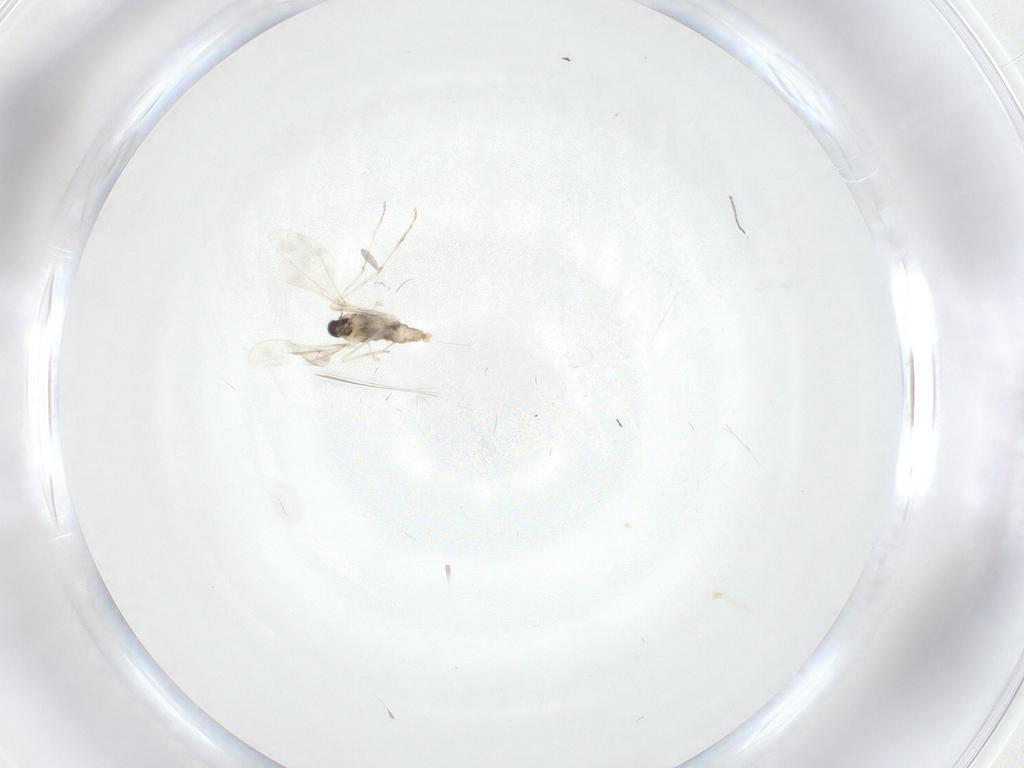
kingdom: Animalia
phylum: Arthropoda
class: Insecta
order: Diptera
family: Cecidomyiidae
